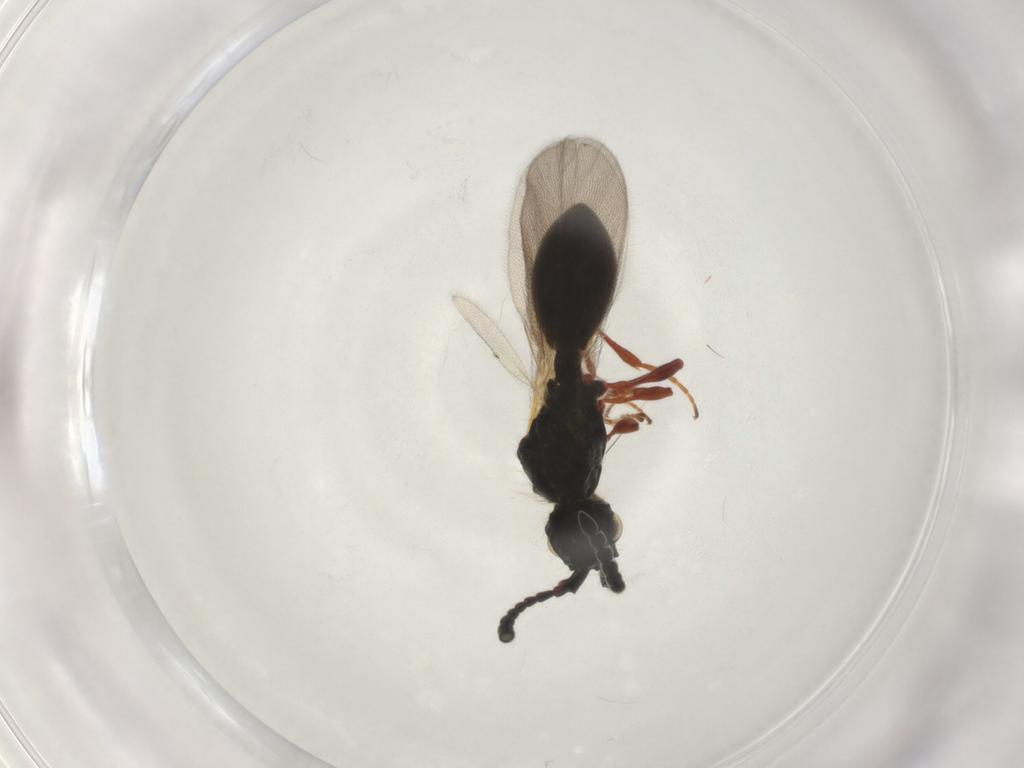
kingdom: Animalia
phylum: Arthropoda
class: Insecta
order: Hymenoptera
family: Diapriidae
